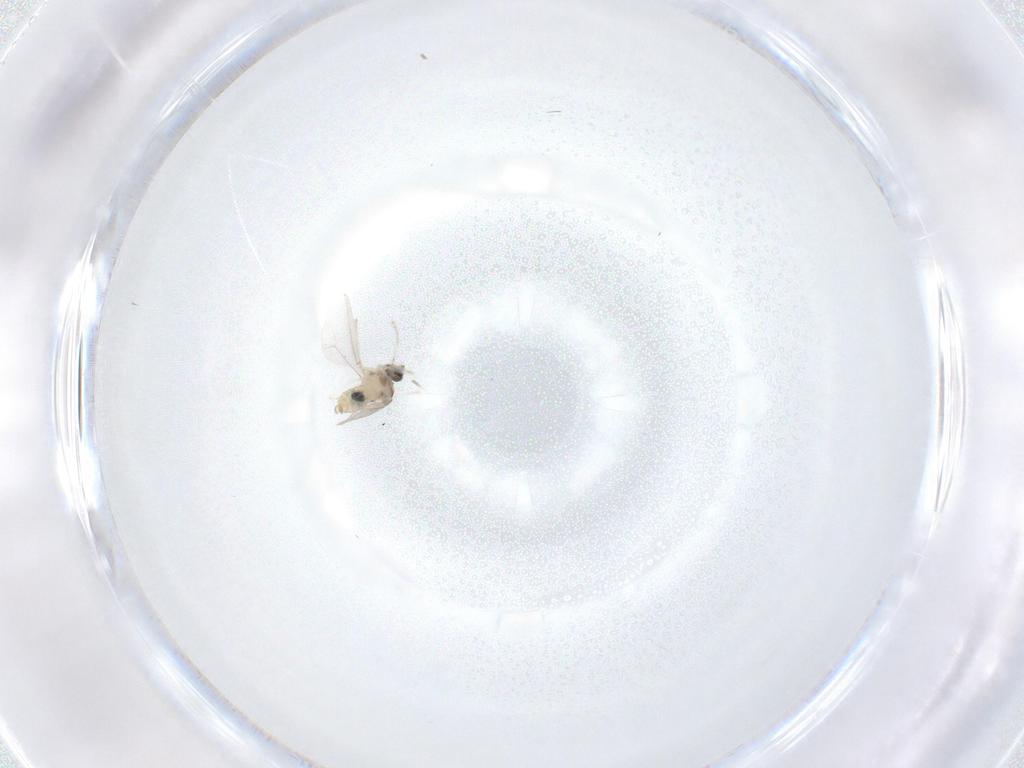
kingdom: Animalia
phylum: Arthropoda
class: Insecta
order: Diptera
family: Cecidomyiidae
